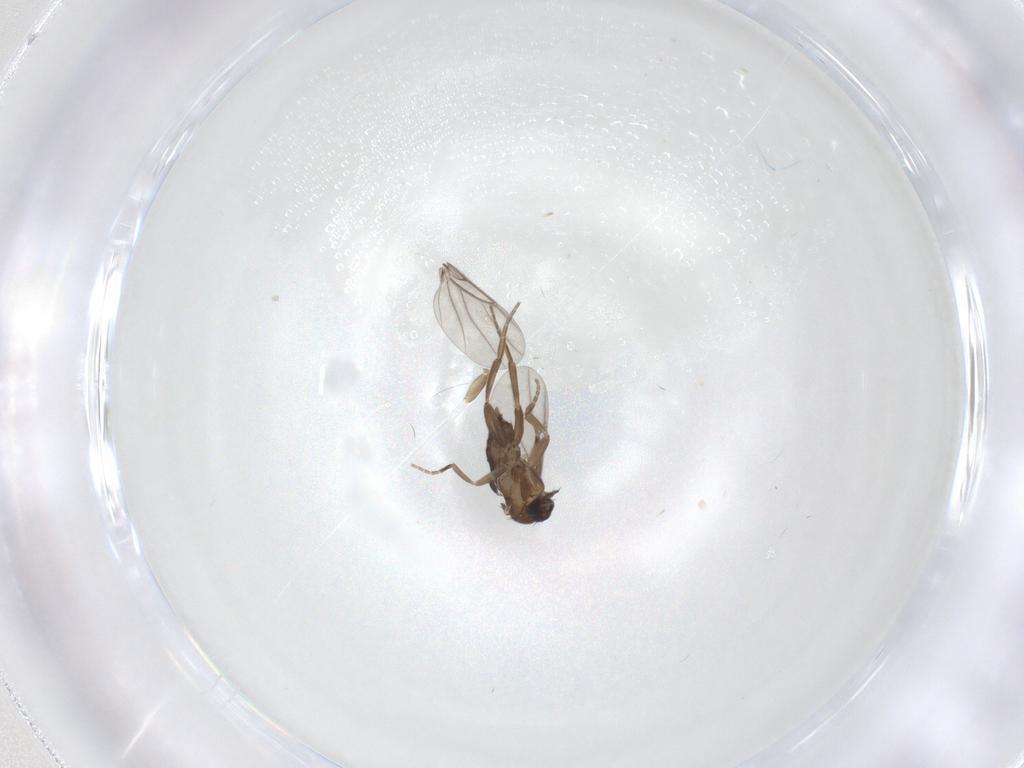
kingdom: Animalia
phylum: Arthropoda
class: Insecta
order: Diptera
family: Phoridae
